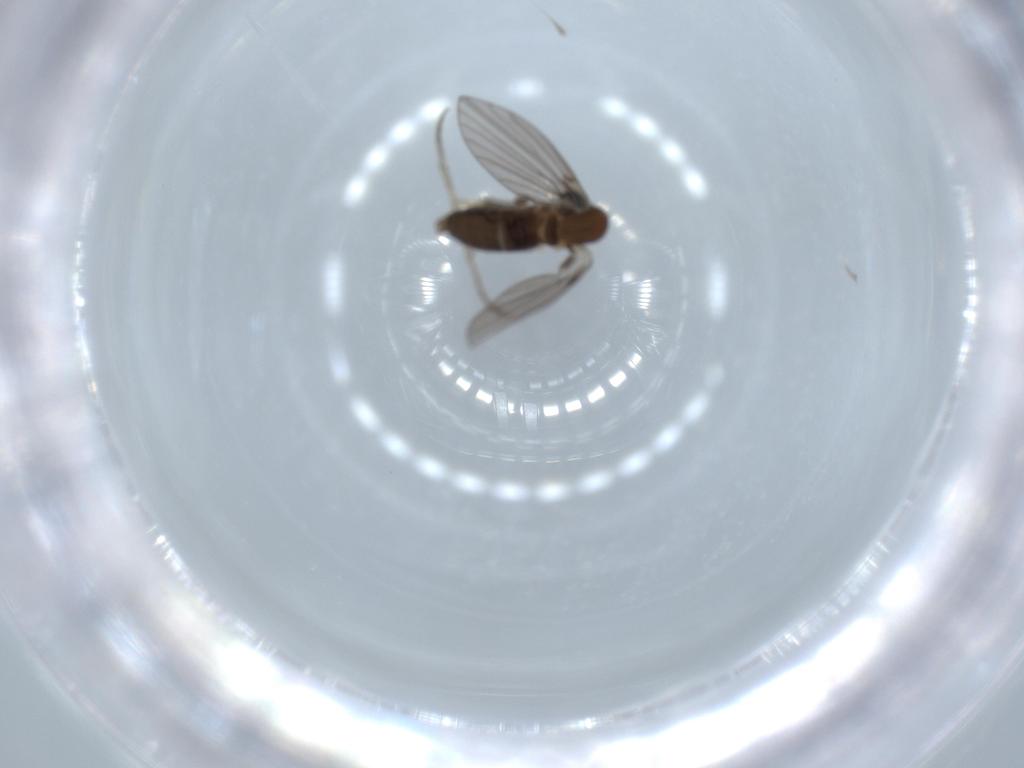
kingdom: Animalia
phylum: Arthropoda
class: Insecta
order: Diptera
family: Psychodidae
